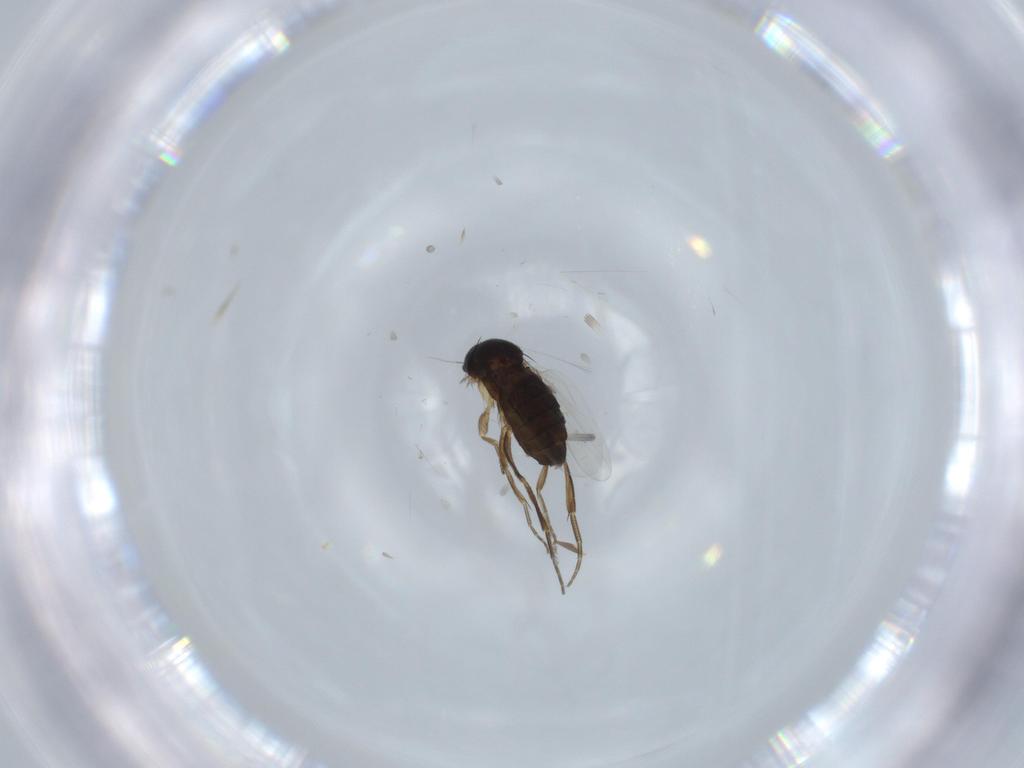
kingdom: Animalia
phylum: Arthropoda
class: Insecta
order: Diptera
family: Phoridae
